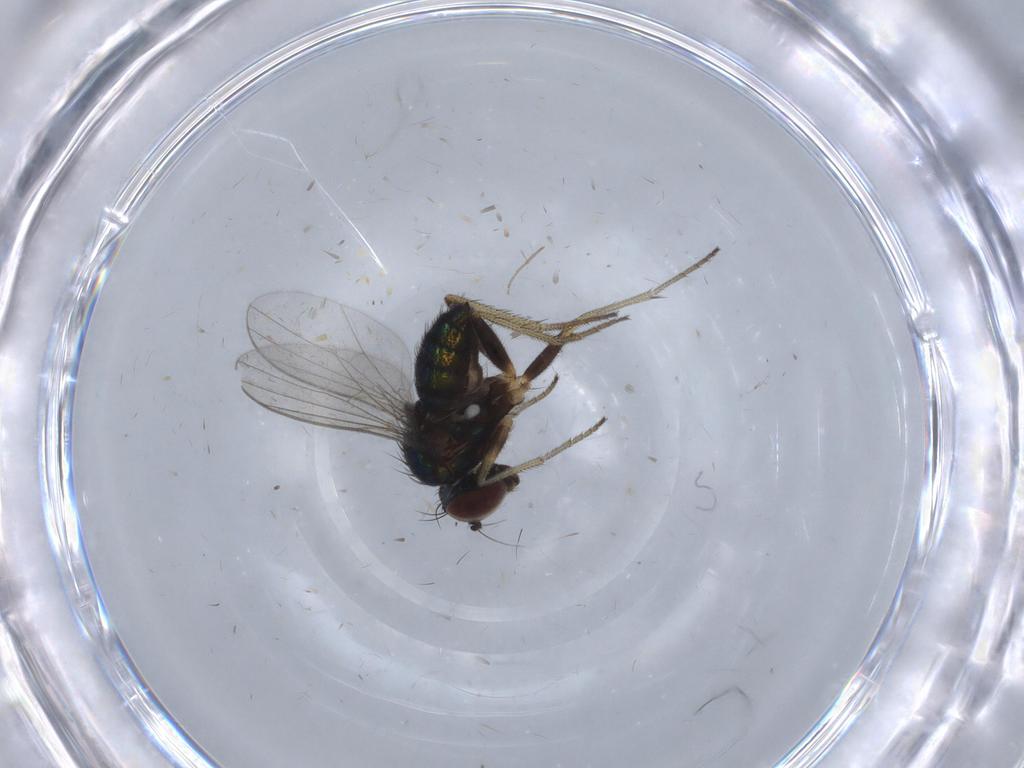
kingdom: Animalia
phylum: Arthropoda
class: Insecta
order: Diptera
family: Dolichopodidae
